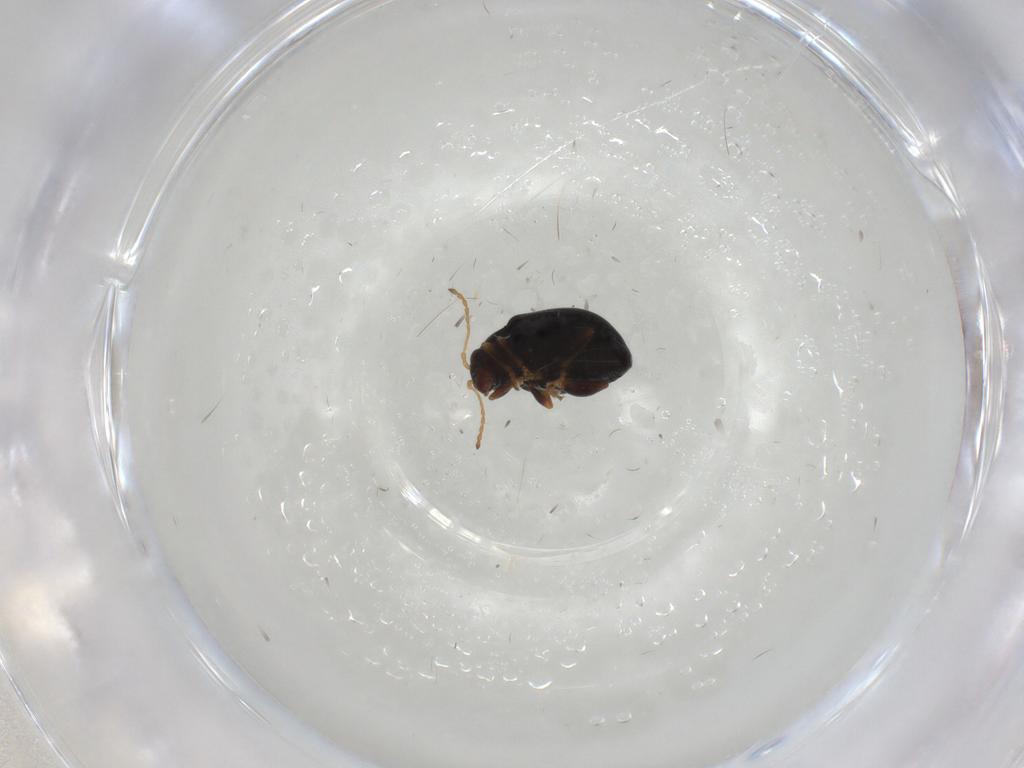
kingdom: Animalia
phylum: Arthropoda
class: Insecta
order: Coleoptera
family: Chrysomelidae
